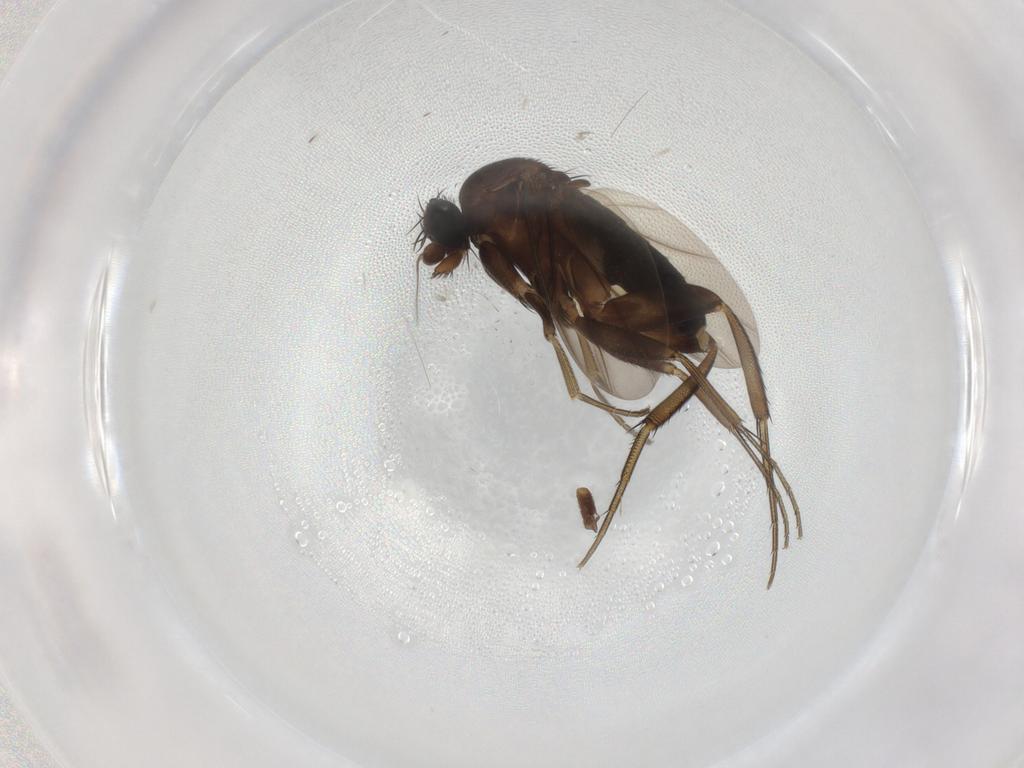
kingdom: Animalia
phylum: Arthropoda
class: Insecta
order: Diptera
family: Phoridae
